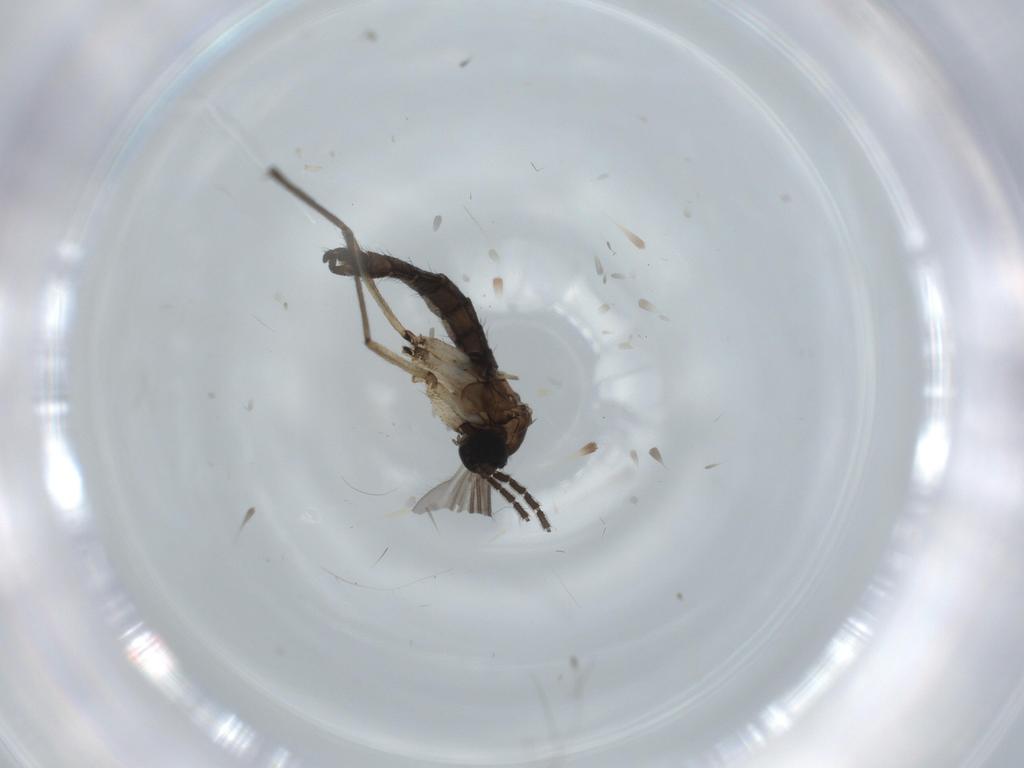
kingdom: Animalia
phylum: Arthropoda
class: Insecta
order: Diptera
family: Sciaridae
